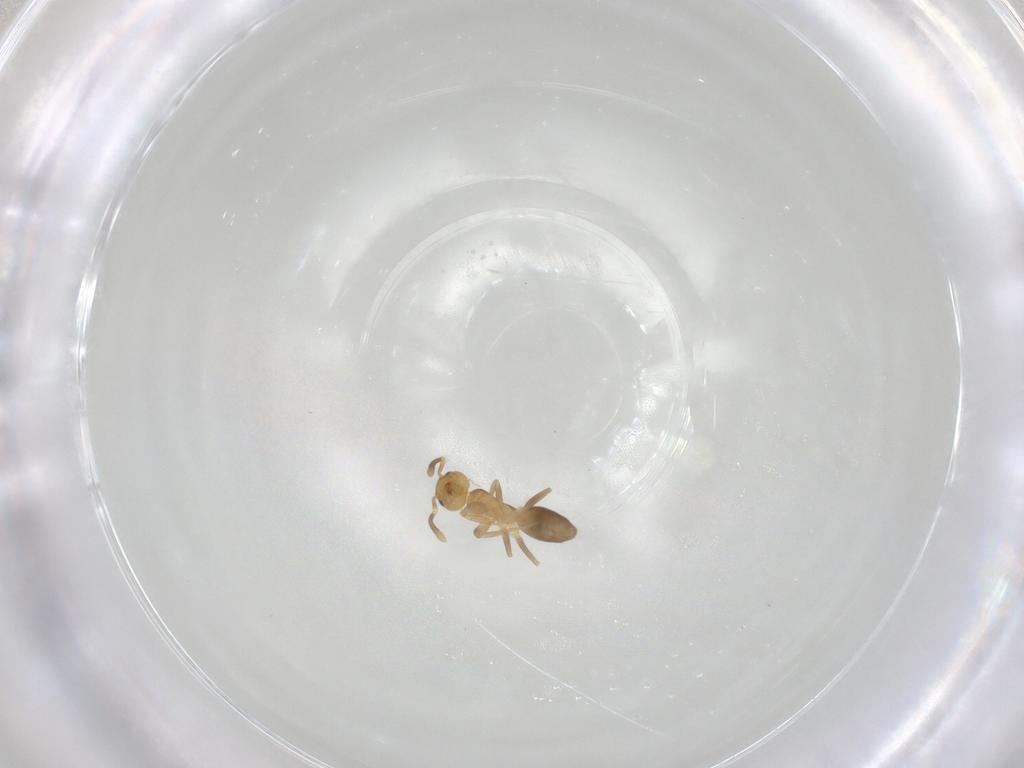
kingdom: Animalia
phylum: Arthropoda
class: Insecta
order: Hymenoptera
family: Formicidae
